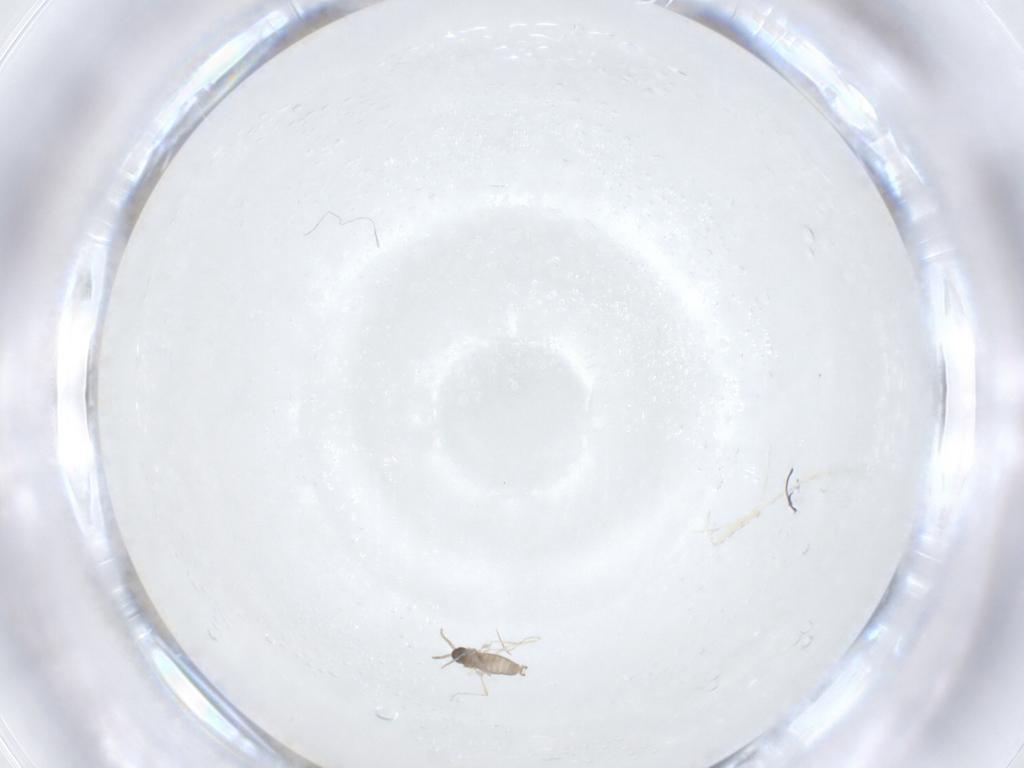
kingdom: Animalia
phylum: Arthropoda
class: Insecta
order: Diptera
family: Cecidomyiidae
